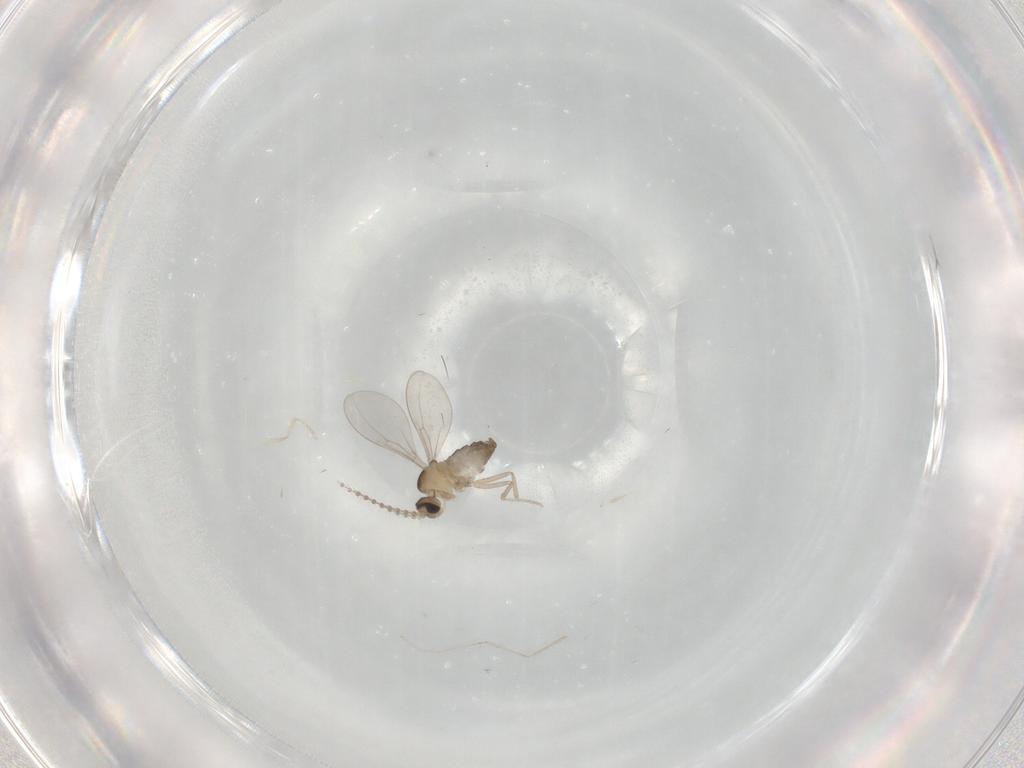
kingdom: Animalia
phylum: Arthropoda
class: Insecta
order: Diptera
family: Cecidomyiidae
